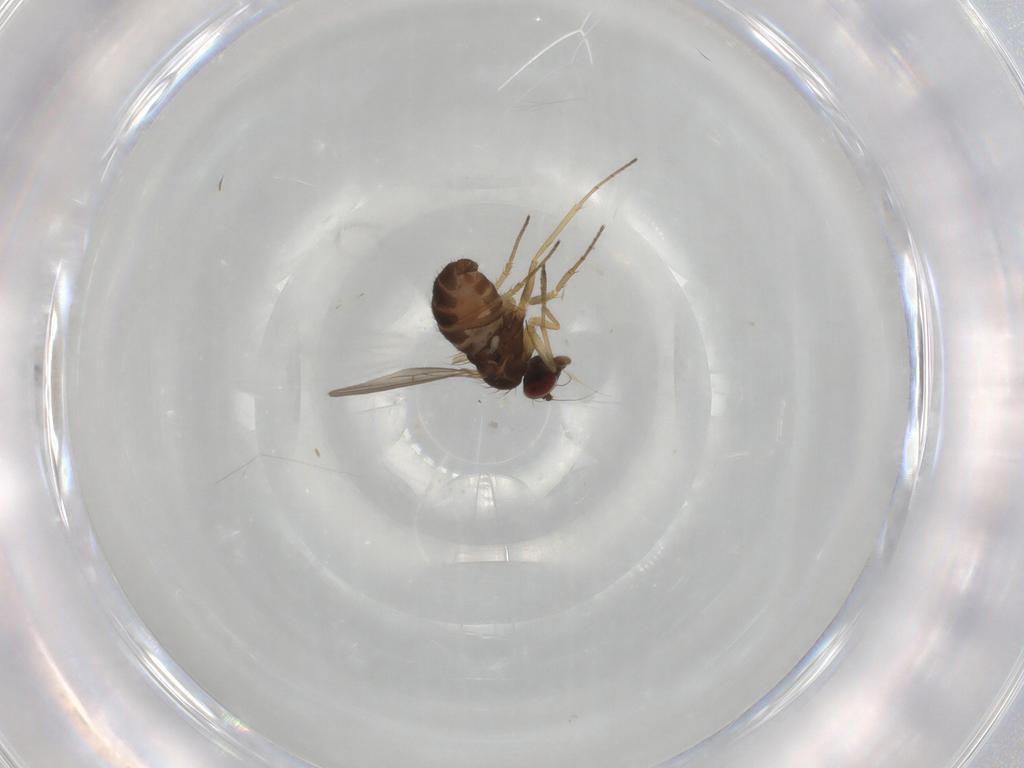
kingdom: Animalia
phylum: Arthropoda
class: Insecta
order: Diptera
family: Dolichopodidae
